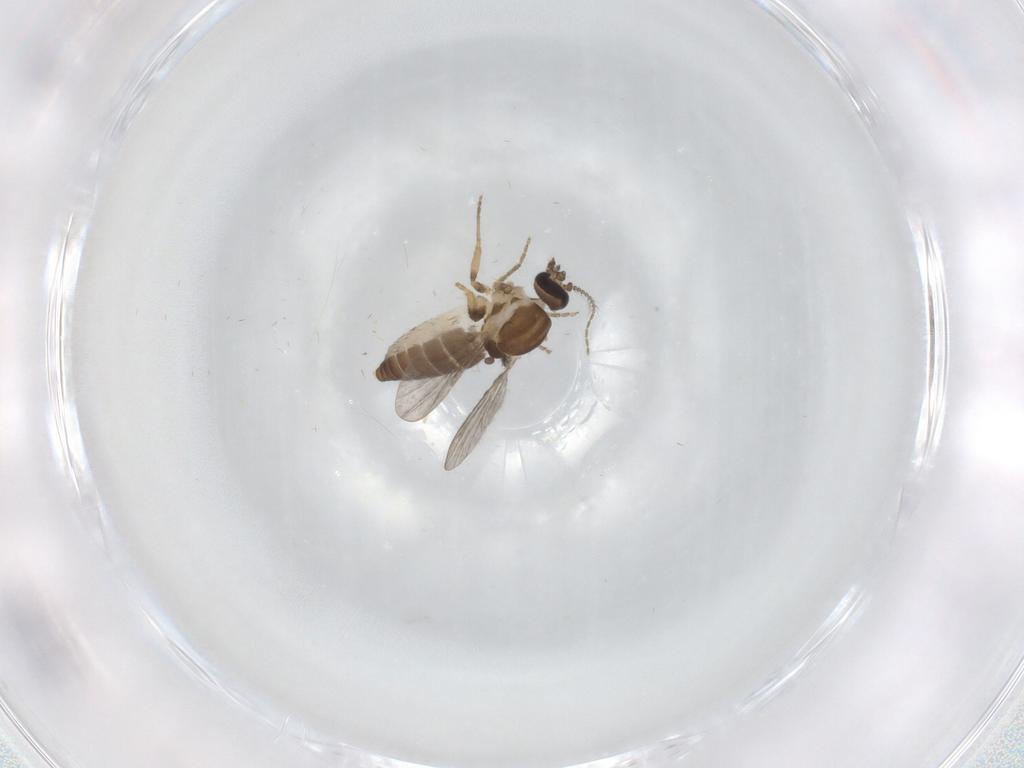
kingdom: Animalia
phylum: Arthropoda
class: Insecta
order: Diptera
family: Ceratopogonidae
